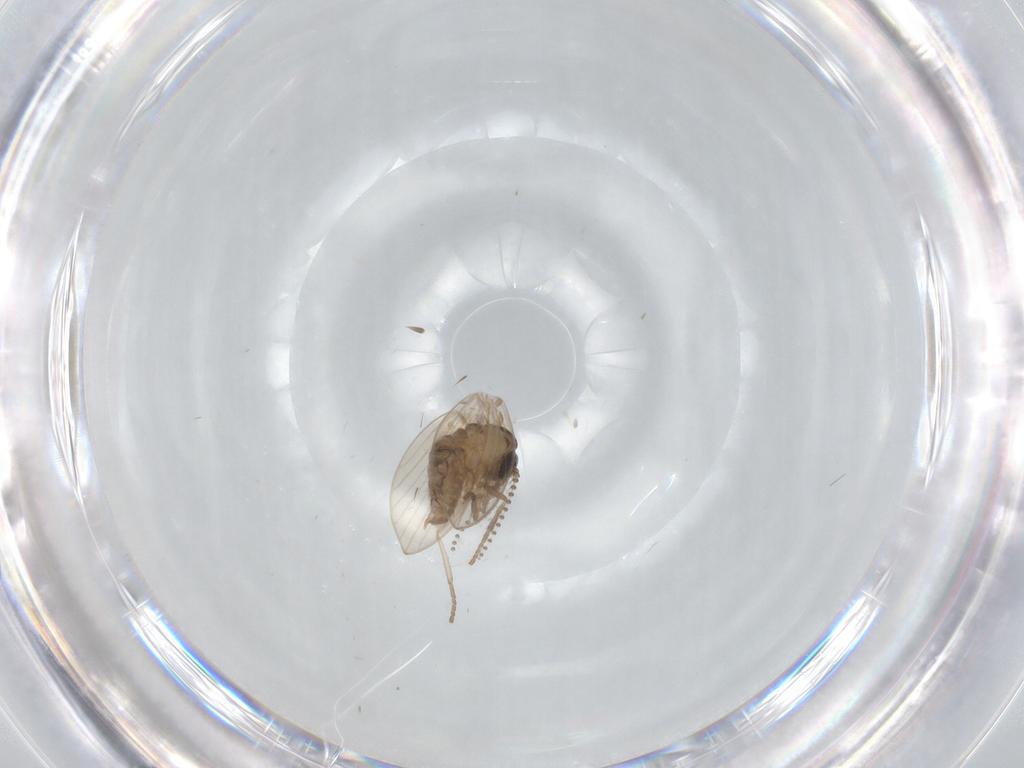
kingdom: Animalia
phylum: Arthropoda
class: Insecta
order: Diptera
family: Psychodidae
